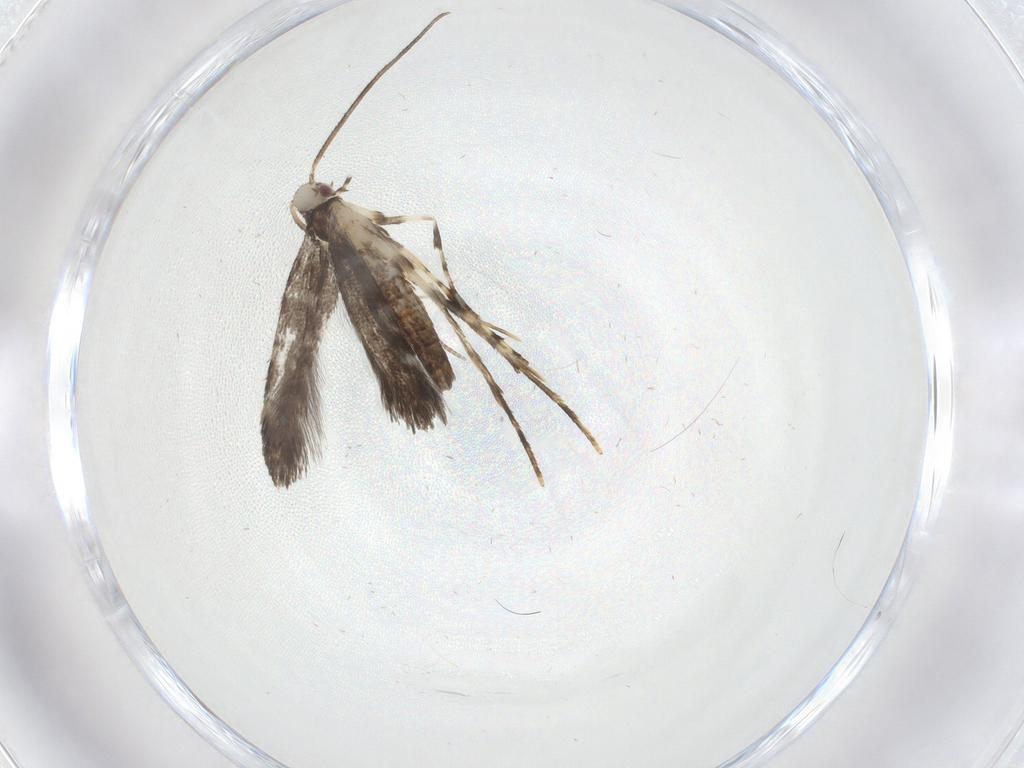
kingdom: Animalia
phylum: Arthropoda
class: Insecta
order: Lepidoptera
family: Gracillariidae
